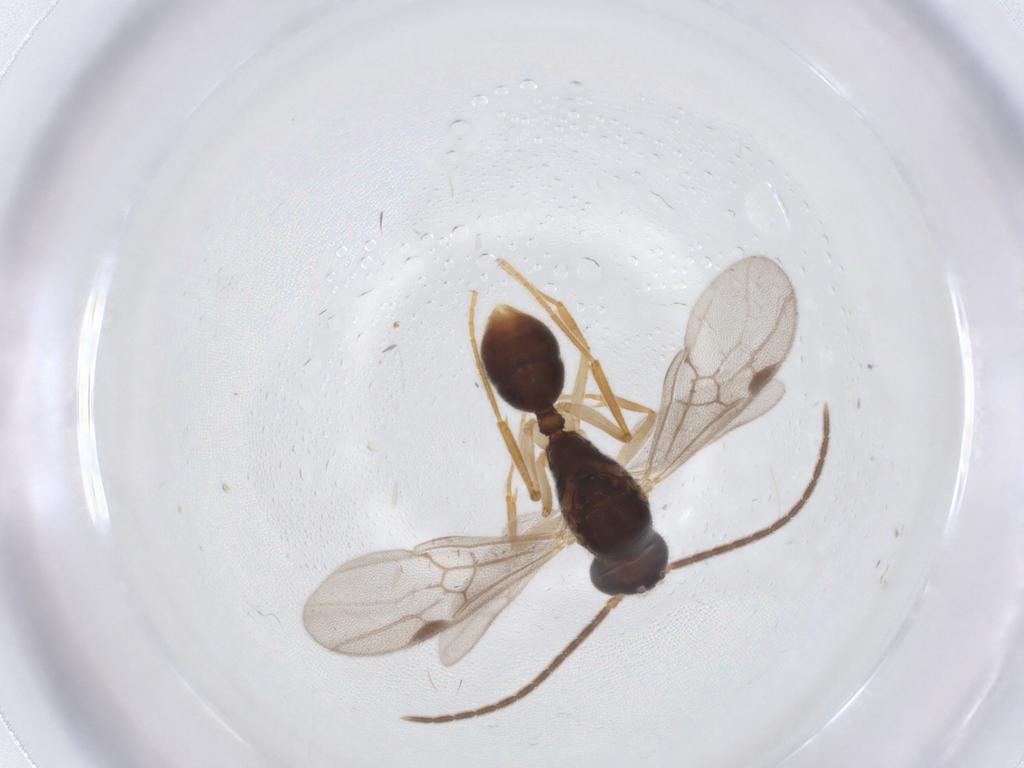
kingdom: Animalia
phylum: Arthropoda
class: Insecta
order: Hymenoptera
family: Formicidae
